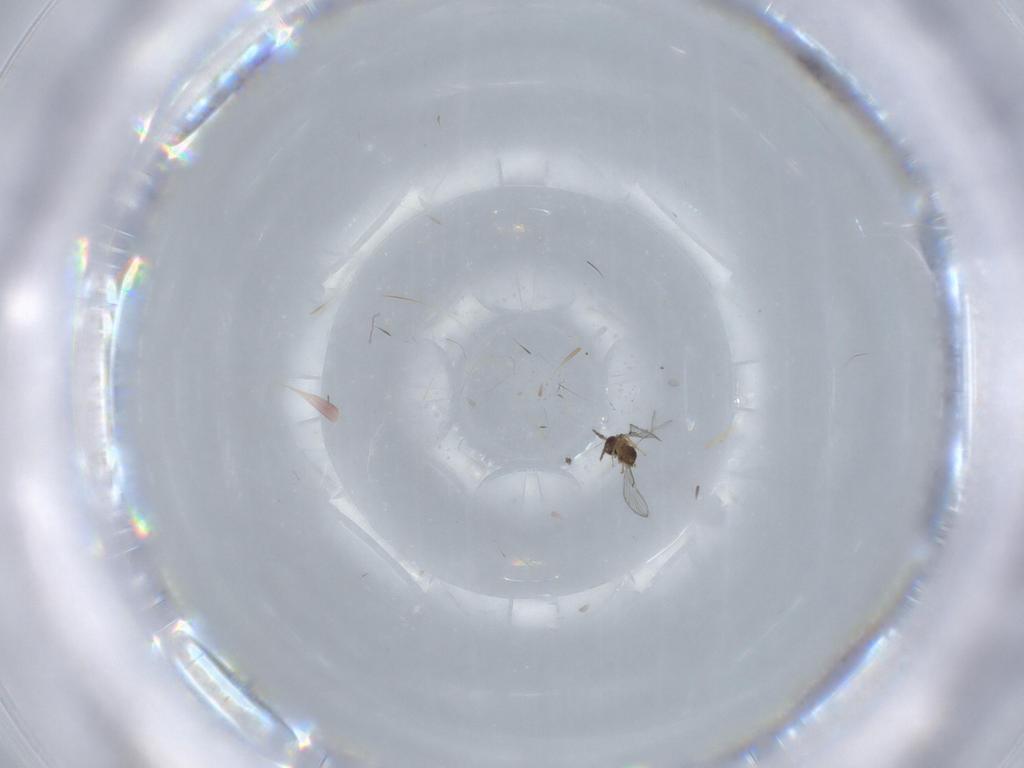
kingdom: Animalia
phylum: Arthropoda
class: Insecta
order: Hymenoptera
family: Trichogrammatidae
